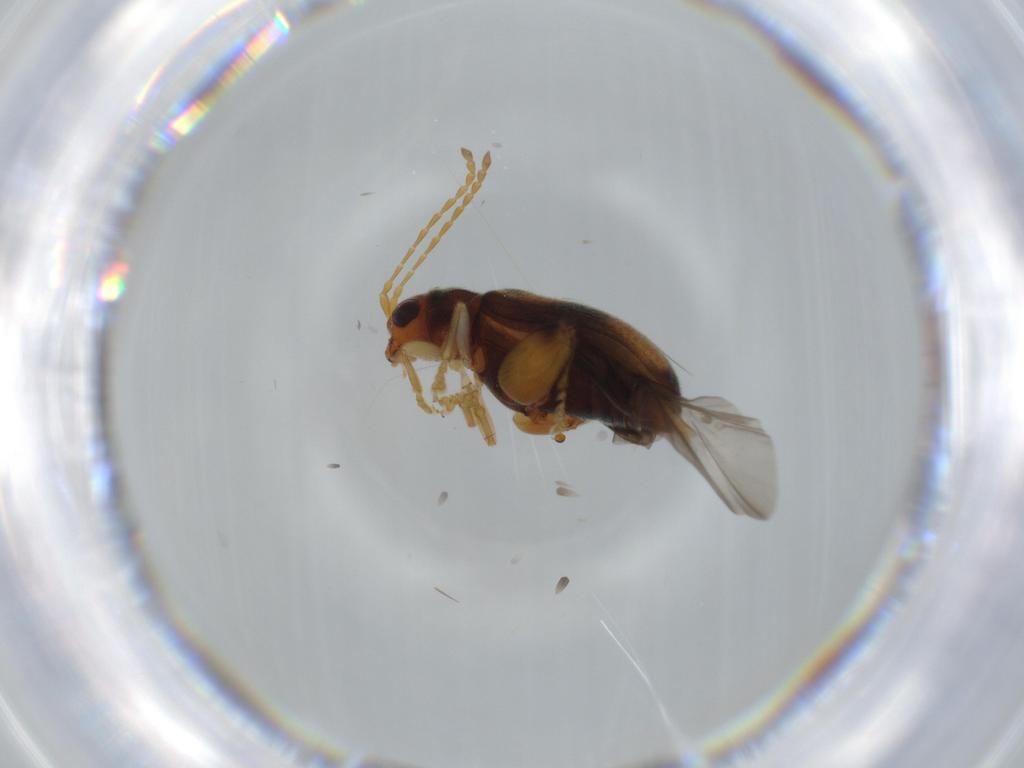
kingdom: Animalia
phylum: Arthropoda
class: Insecta
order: Coleoptera
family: Chrysomelidae
